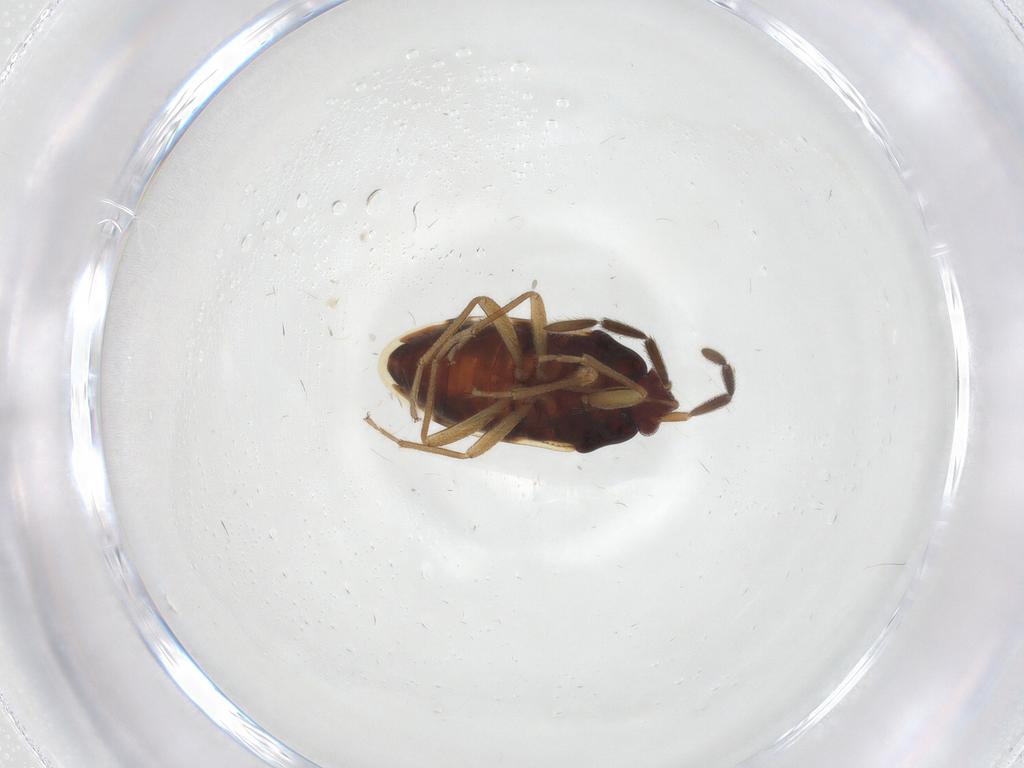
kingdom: Animalia
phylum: Arthropoda
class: Insecta
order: Hemiptera
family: Rhyparochromidae
